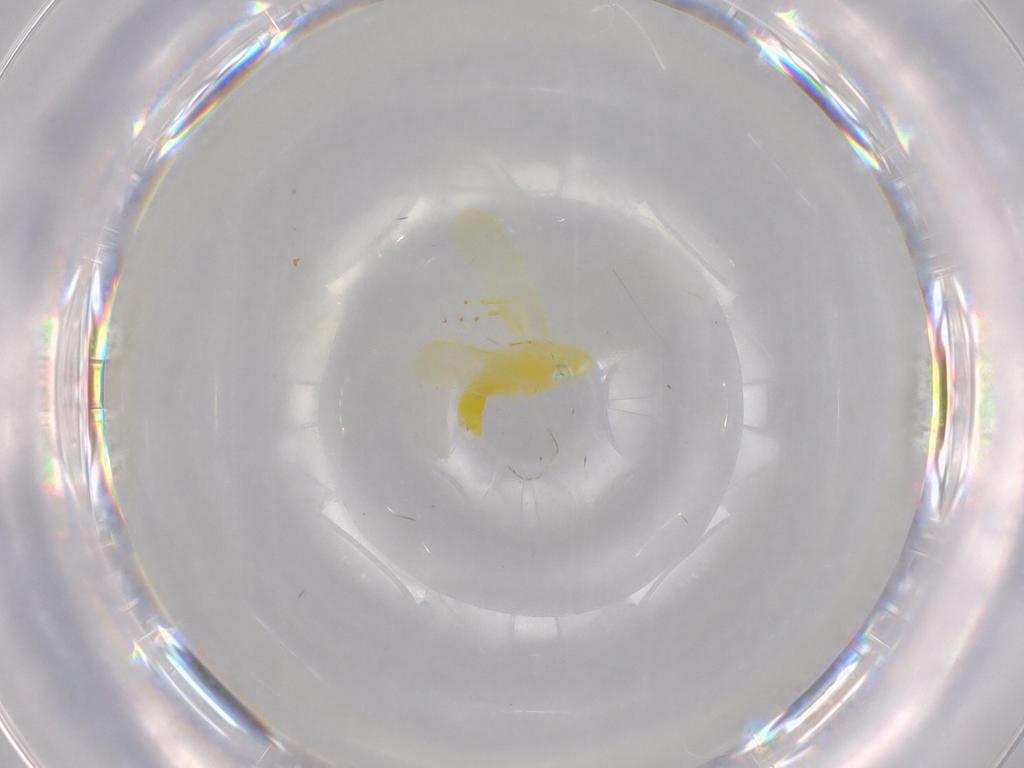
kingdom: Animalia
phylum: Arthropoda
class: Insecta
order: Hemiptera
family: Cicadellidae
